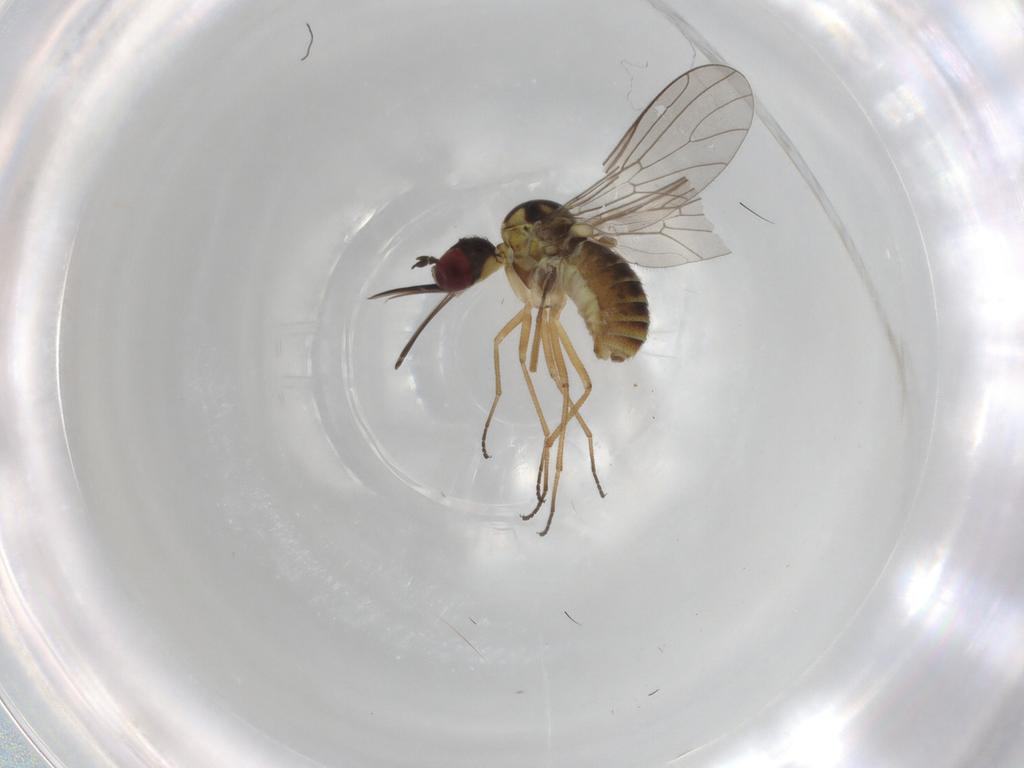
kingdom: Animalia
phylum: Arthropoda
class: Insecta
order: Diptera
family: Bombyliidae
